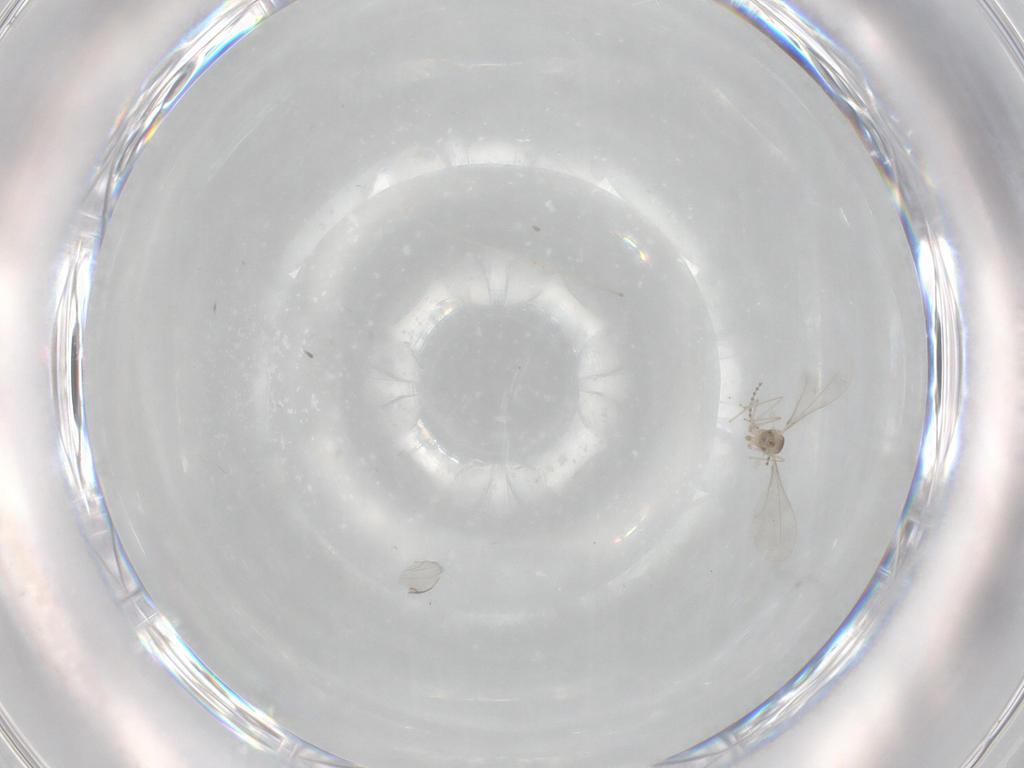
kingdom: Animalia
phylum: Arthropoda
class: Insecta
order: Diptera
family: Cecidomyiidae
